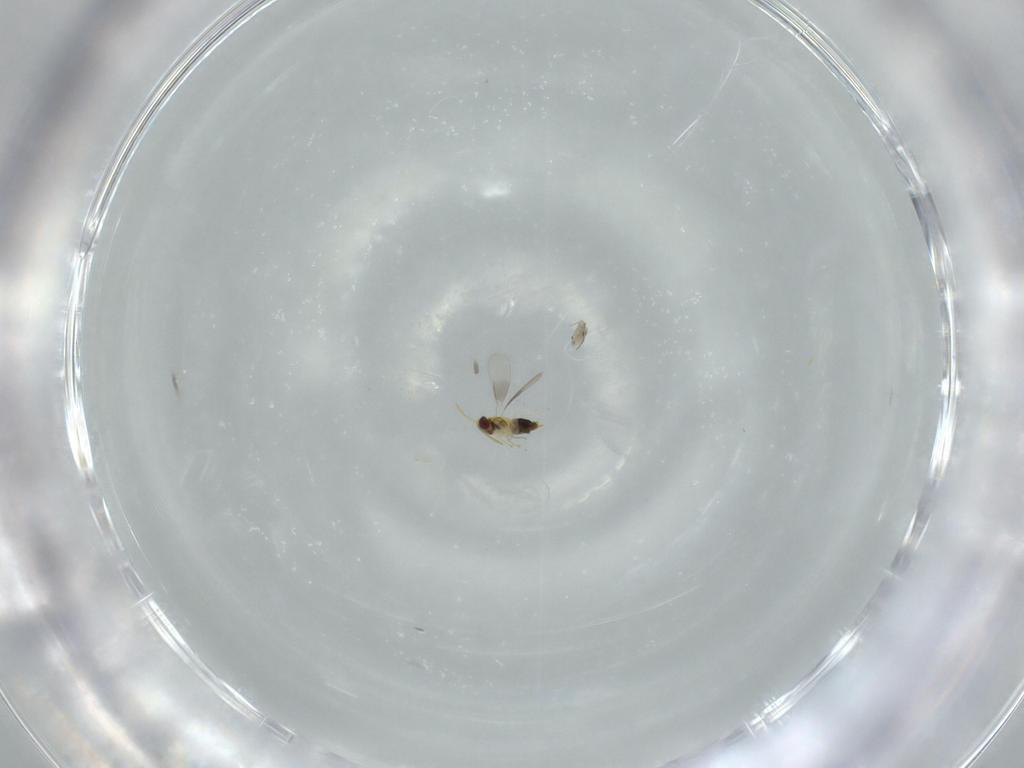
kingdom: Animalia
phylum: Arthropoda
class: Insecta
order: Hymenoptera
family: Aphelinidae
